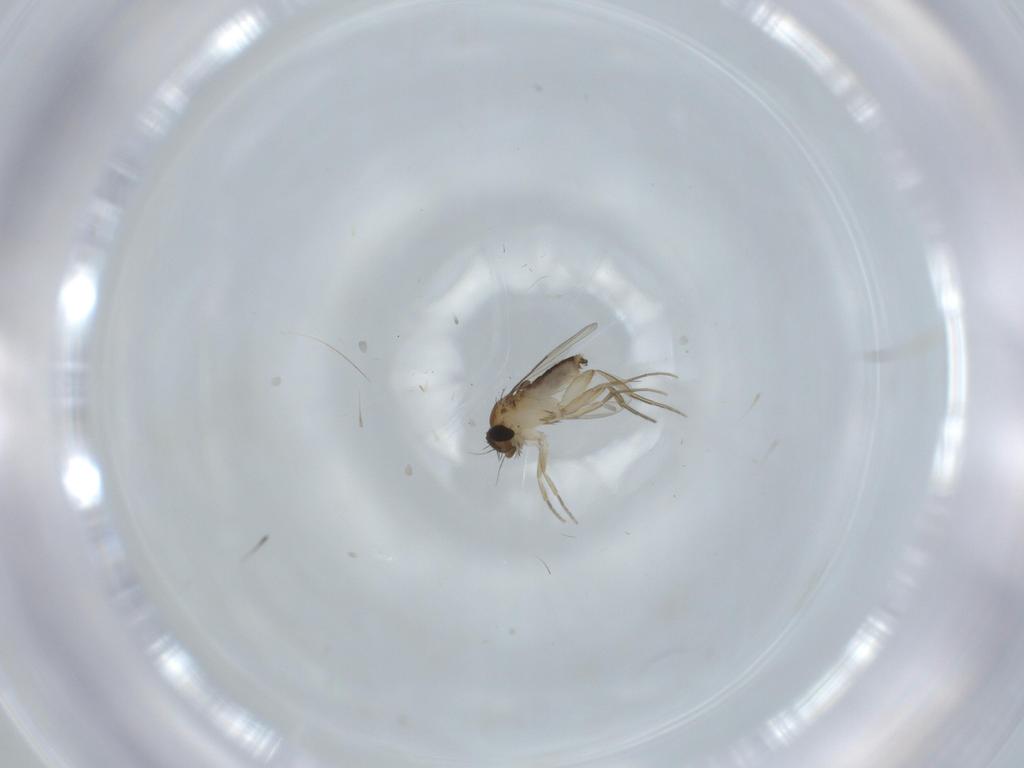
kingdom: Animalia
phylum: Arthropoda
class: Insecta
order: Diptera
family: Phoridae
